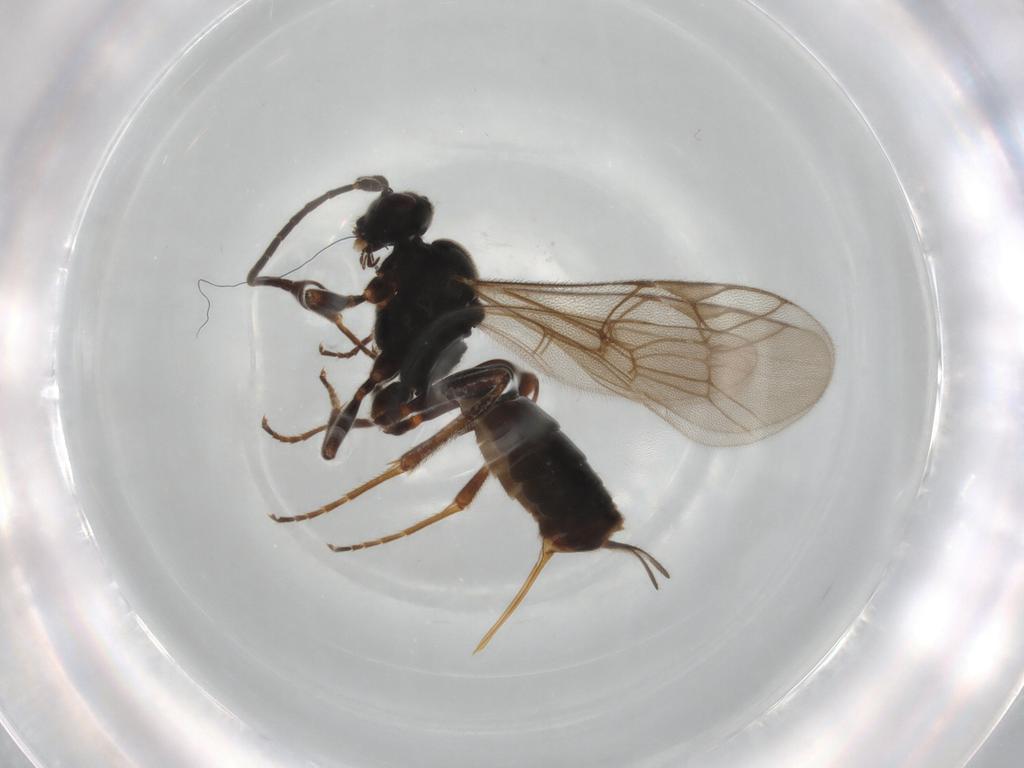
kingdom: Animalia
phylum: Arthropoda
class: Insecta
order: Hymenoptera
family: Ichneumonidae
